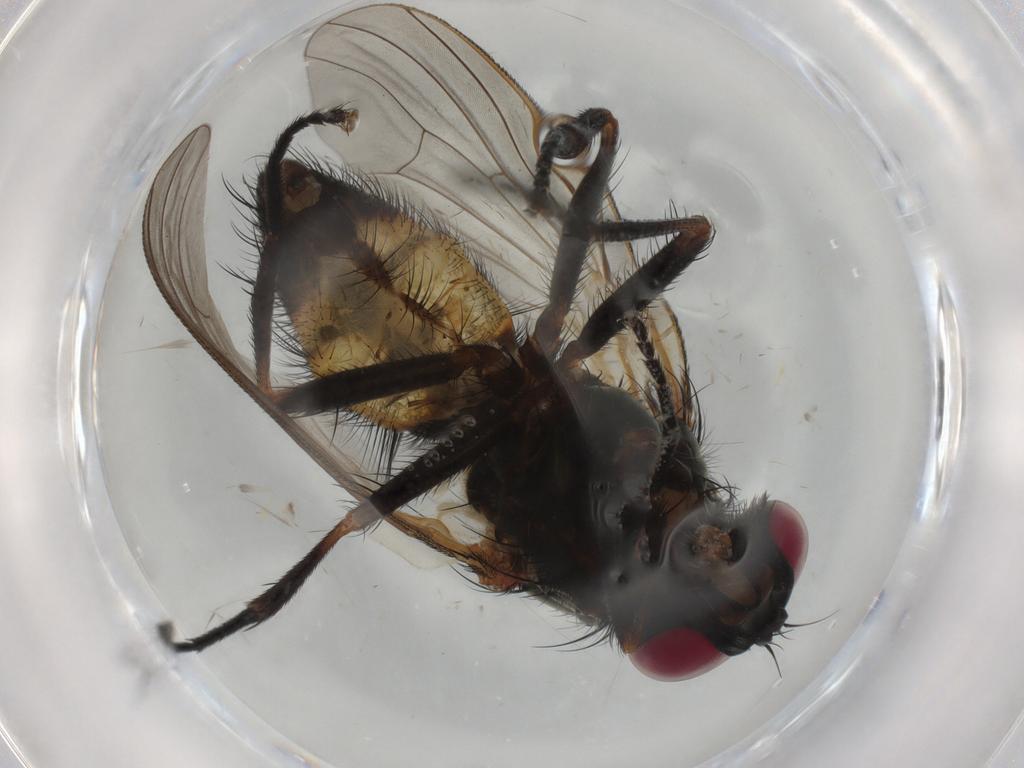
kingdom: Animalia
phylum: Arthropoda
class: Insecta
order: Diptera
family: Fannia
